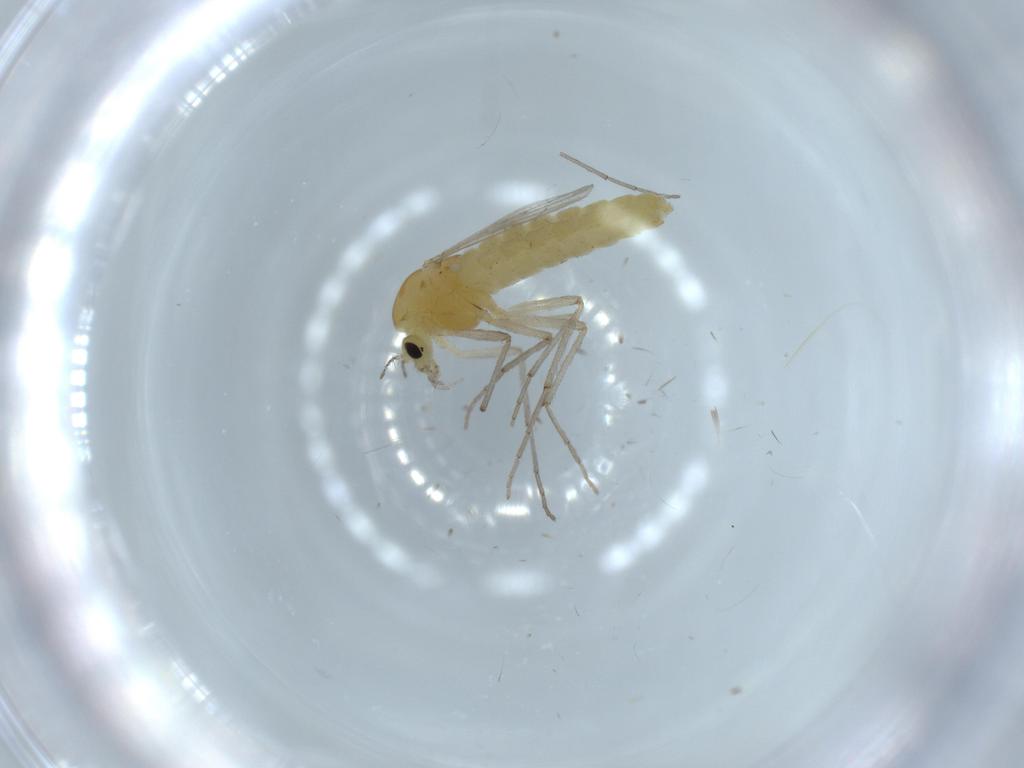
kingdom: Animalia
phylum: Arthropoda
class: Insecta
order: Diptera
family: Chironomidae
